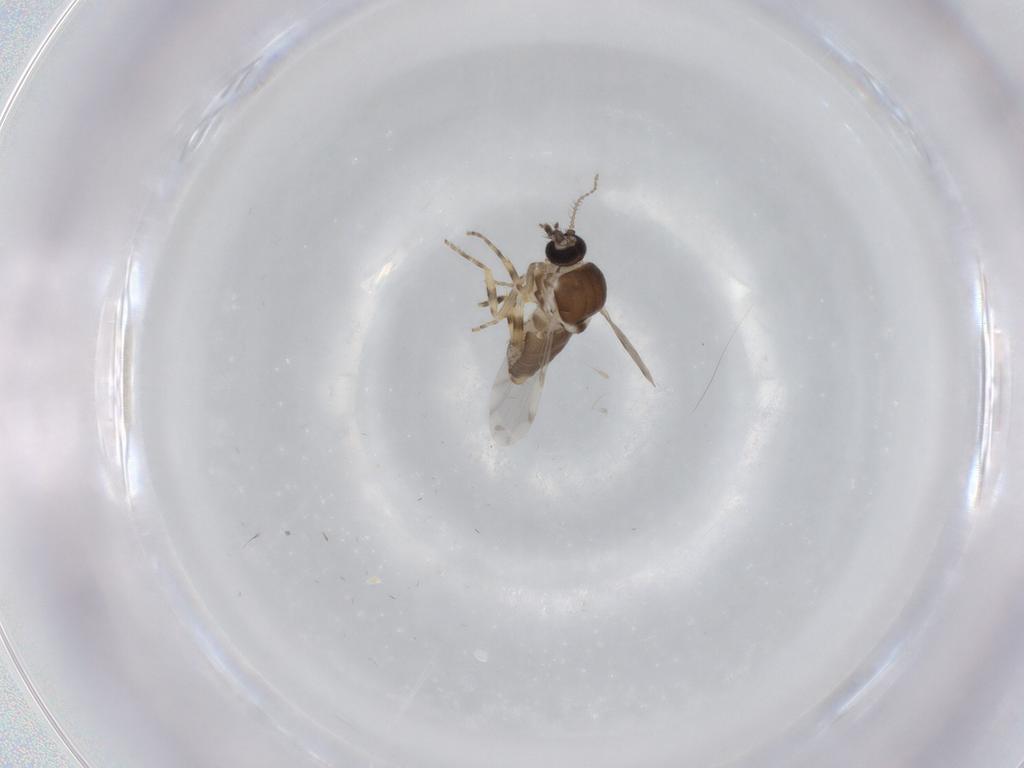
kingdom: Animalia
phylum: Arthropoda
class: Insecta
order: Diptera
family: Ceratopogonidae
